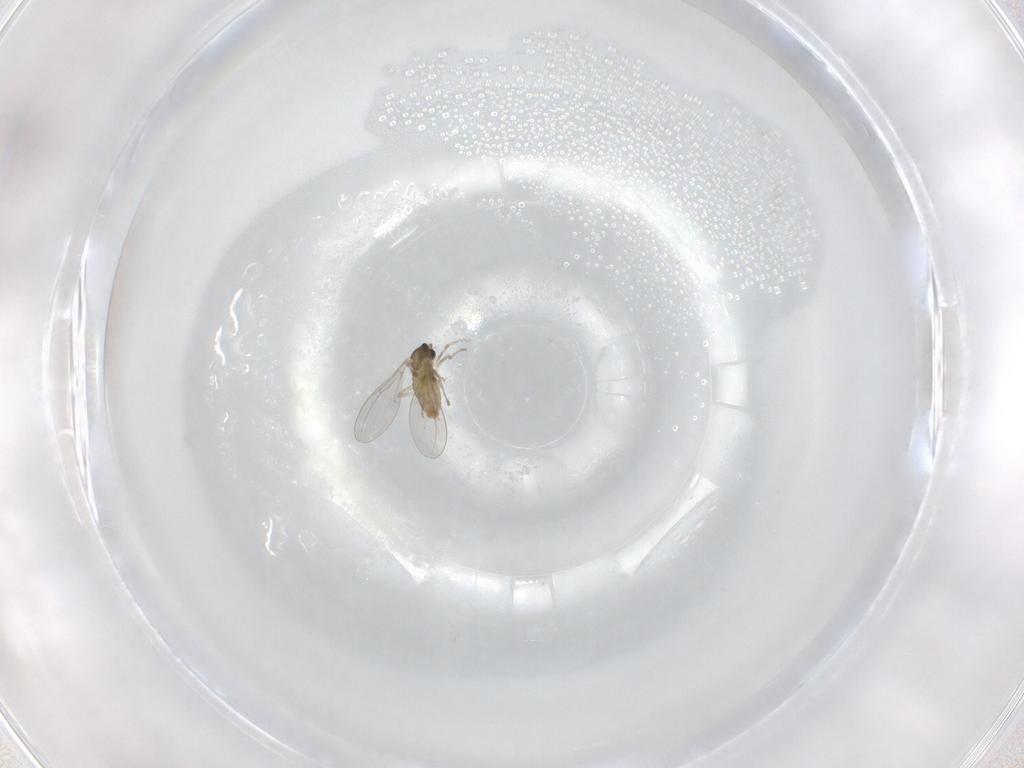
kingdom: Animalia
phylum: Arthropoda
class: Insecta
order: Diptera
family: Cecidomyiidae
